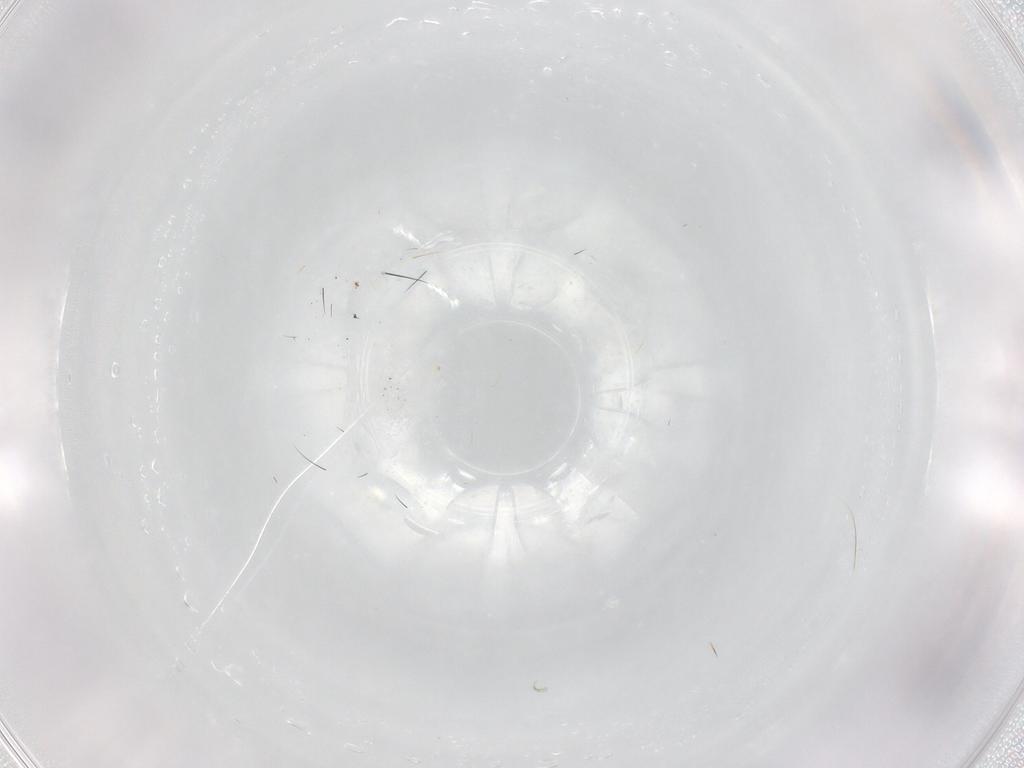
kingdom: Animalia
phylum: Arthropoda
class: Insecta
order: Lepidoptera
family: Gelechiidae
